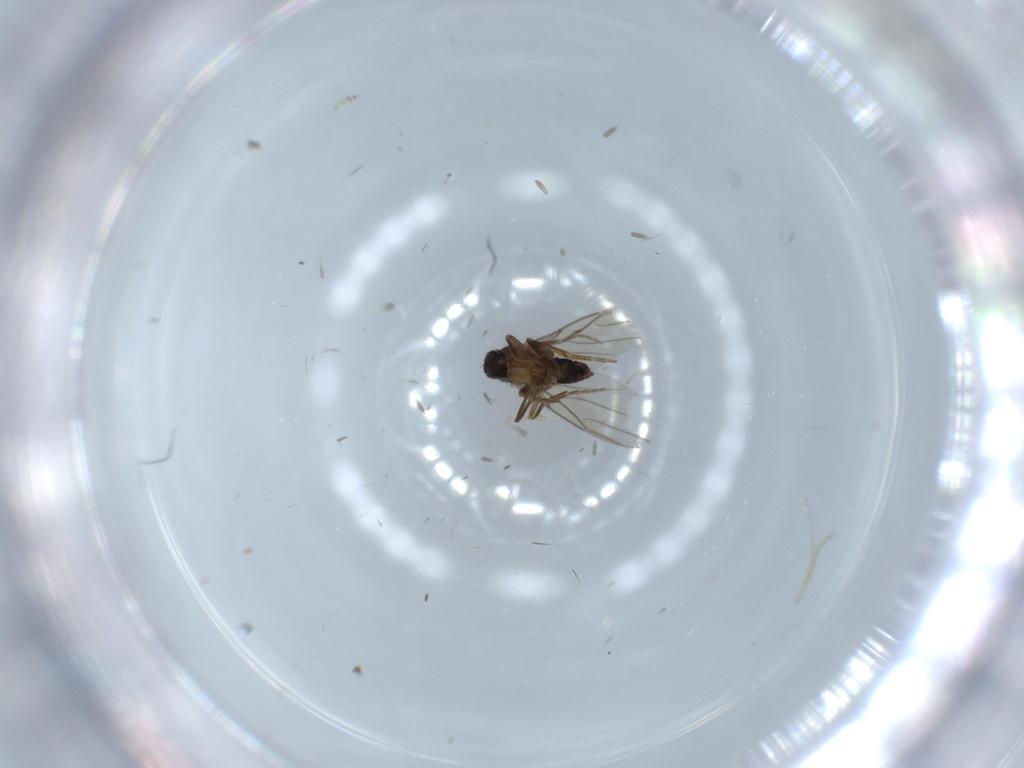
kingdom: Animalia
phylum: Arthropoda
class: Insecta
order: Diptera
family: Phoridae
